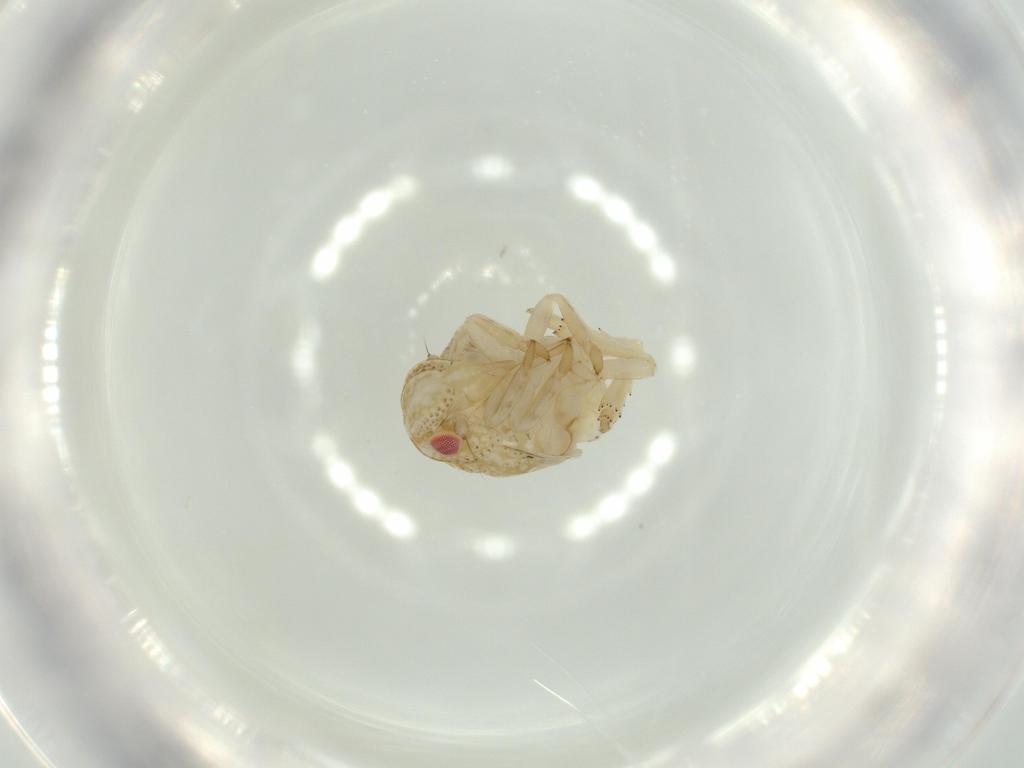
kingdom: Animalia
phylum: Arthropoda
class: Insecta
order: Hemiptera
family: Acanaloniidae
